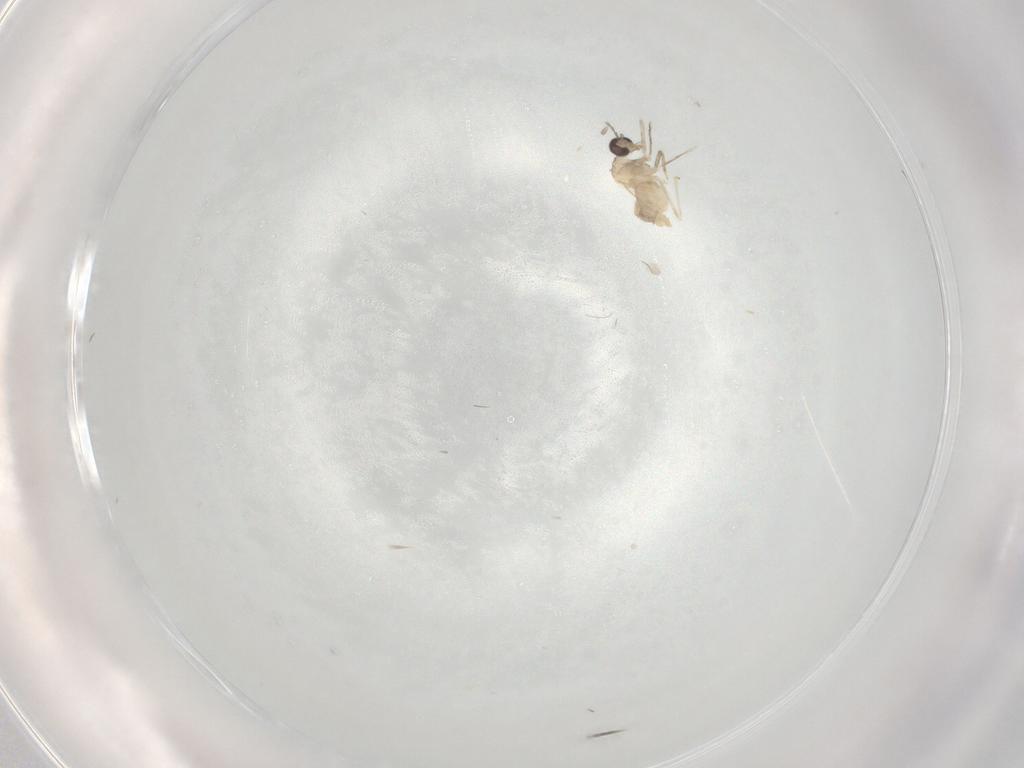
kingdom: Animalia
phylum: Arthropoda
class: Insecta
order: Diptera
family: Cecidomyiidae
